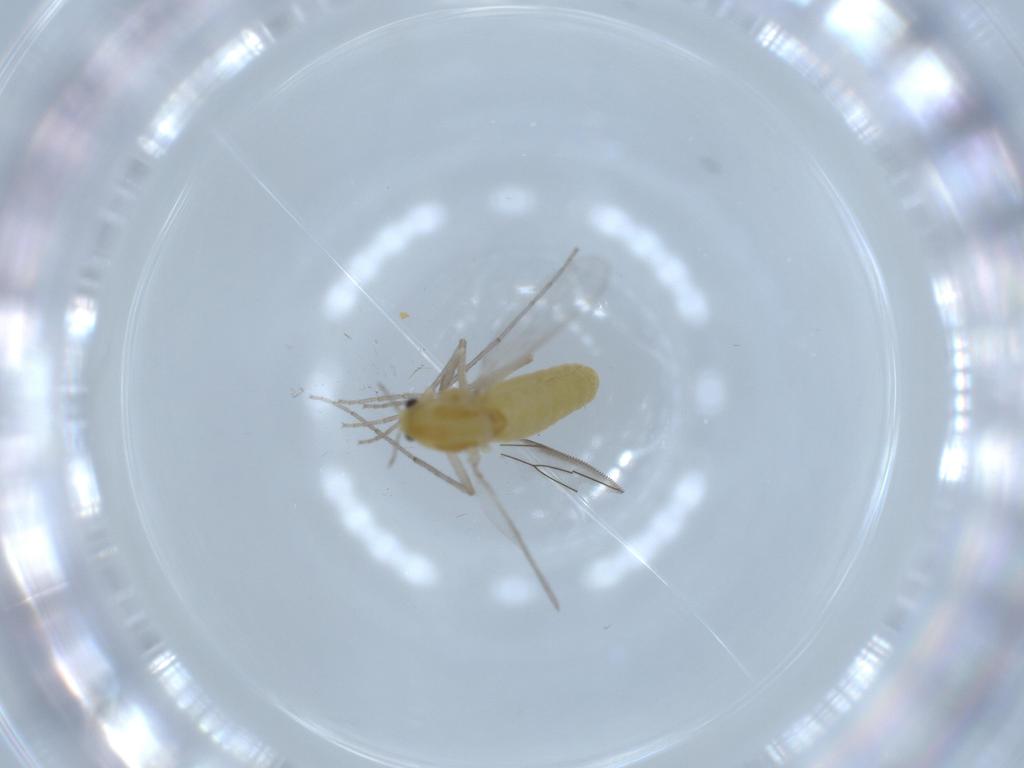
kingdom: Animalia
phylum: Arthropoda
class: Insecta
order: Diptera
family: Chironomidae
